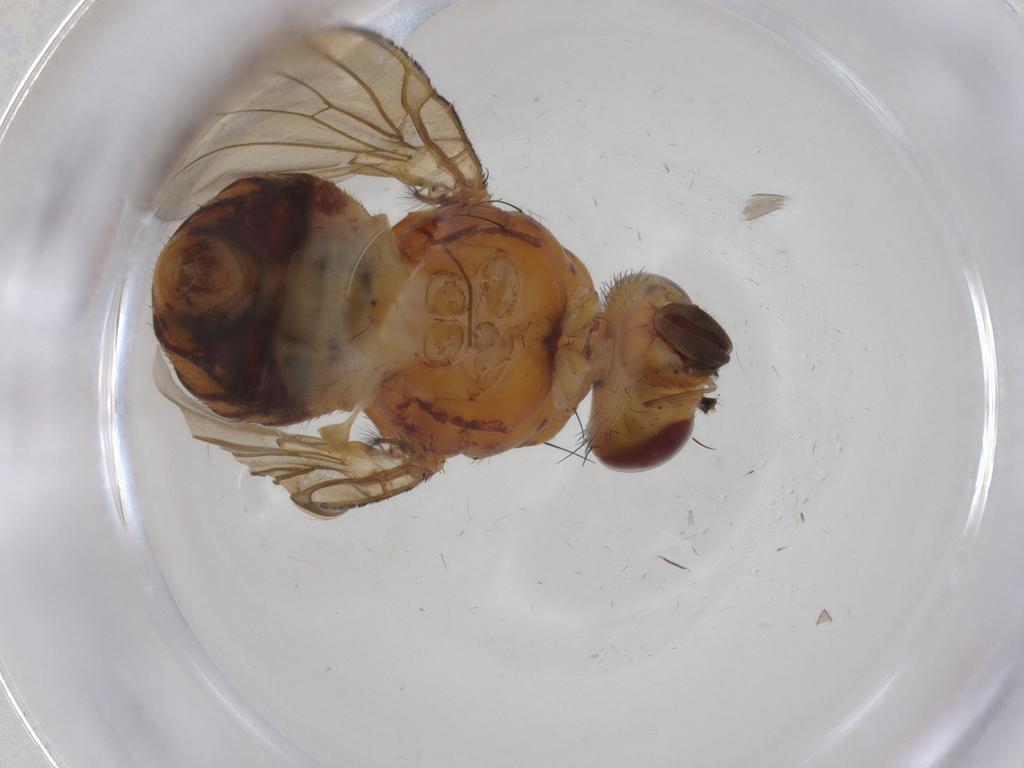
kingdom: Animalia
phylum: Arthropoda
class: Insecta
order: Diptera
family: Lauxaniidae
